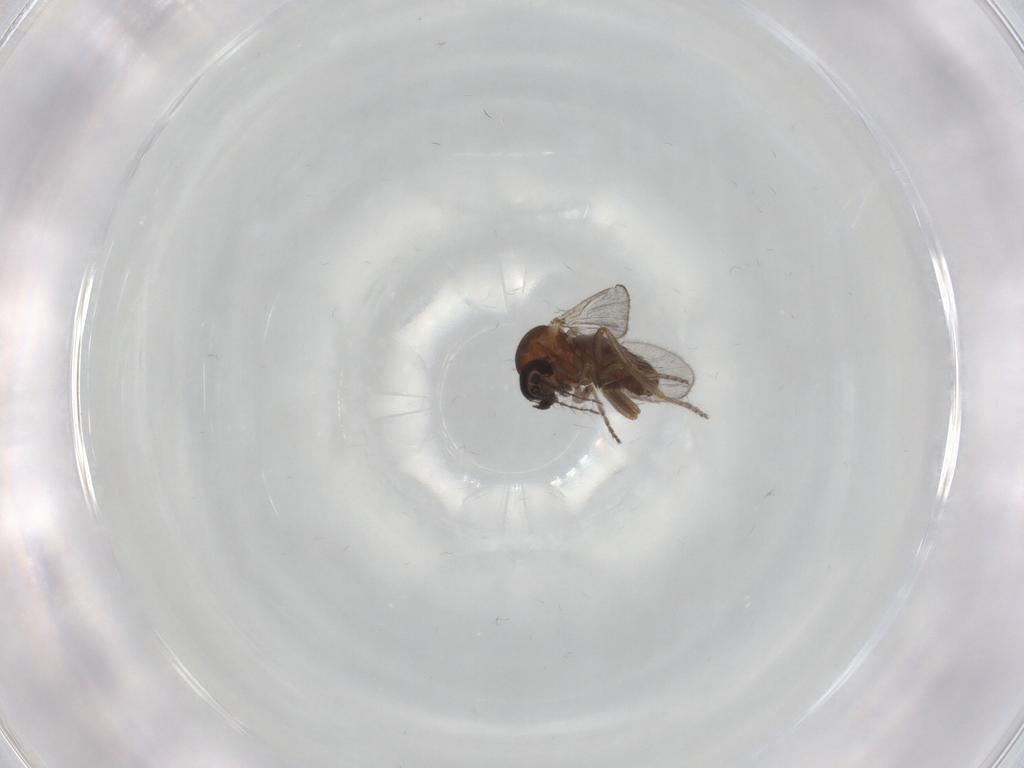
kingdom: Animalia
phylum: Arthropoda
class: Insecta
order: Diptera
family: Ceratopogonidae
